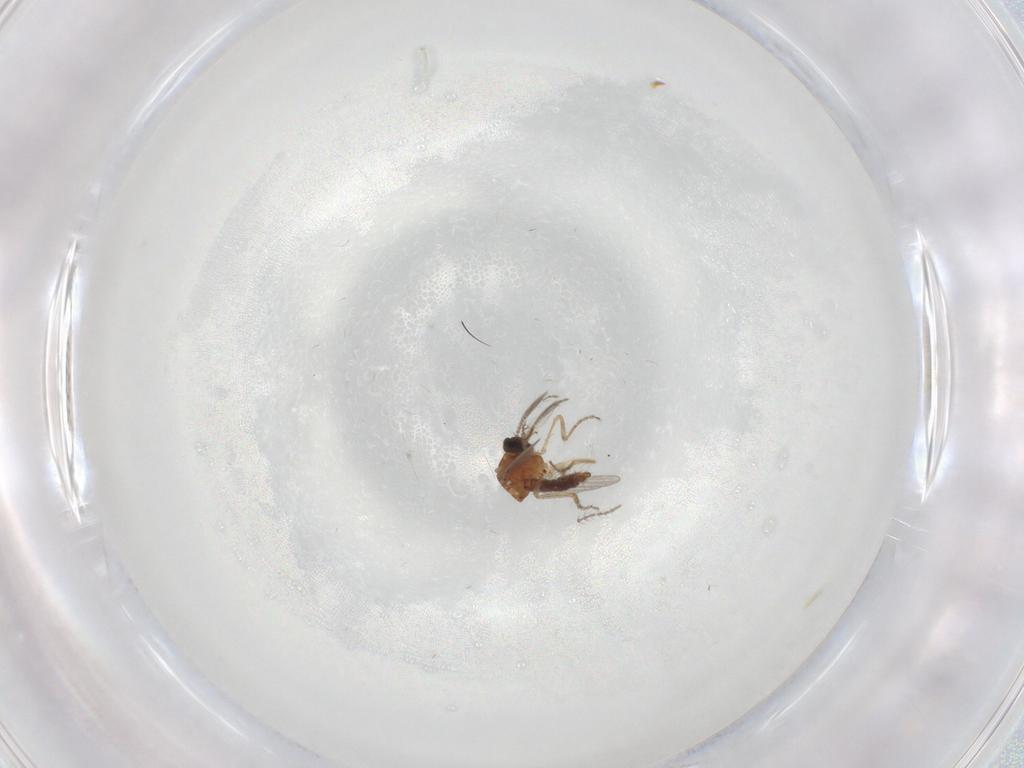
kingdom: Animalia
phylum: Arthropoda
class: Insecta
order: Diptera
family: Ceratopogonidae
